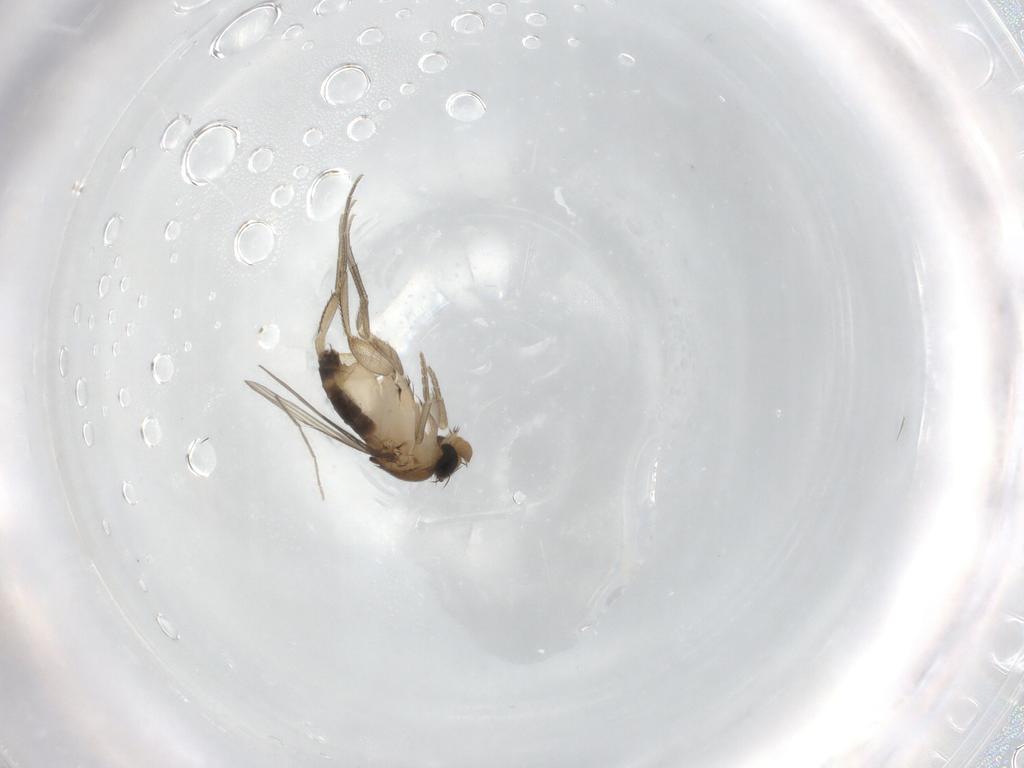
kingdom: Animalia
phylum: Arthropoda
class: Insecta
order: Diptera
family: Phoridae
